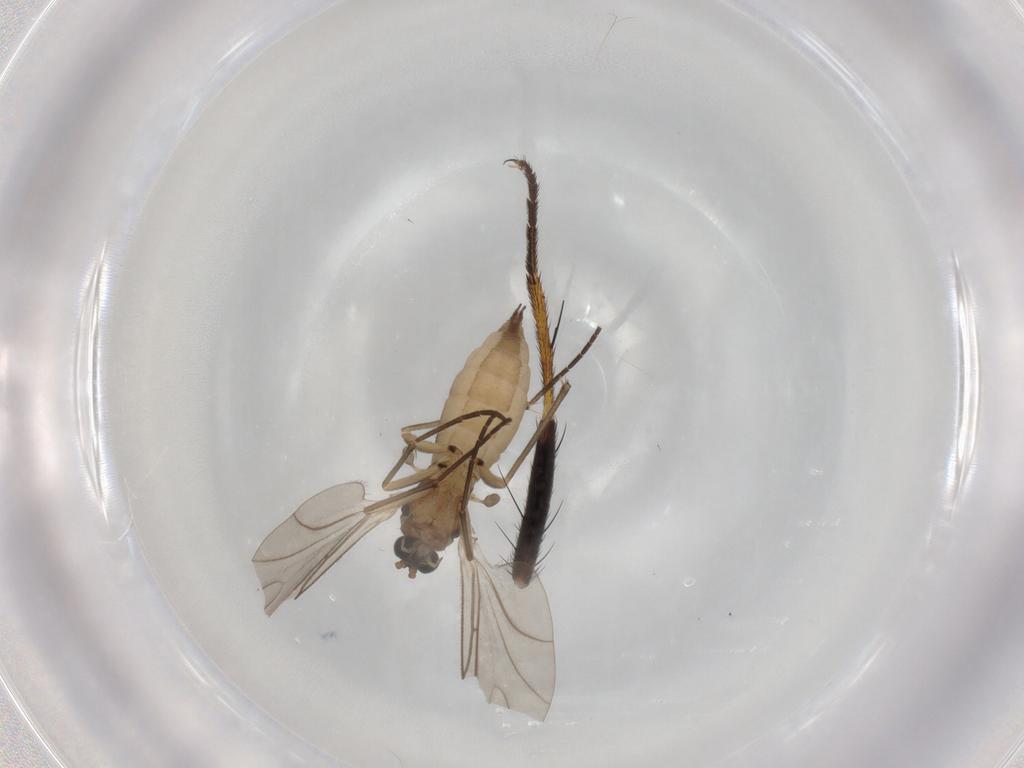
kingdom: Animalia
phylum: Arthropoda
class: Insecta
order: Diptera
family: Sciaridae
